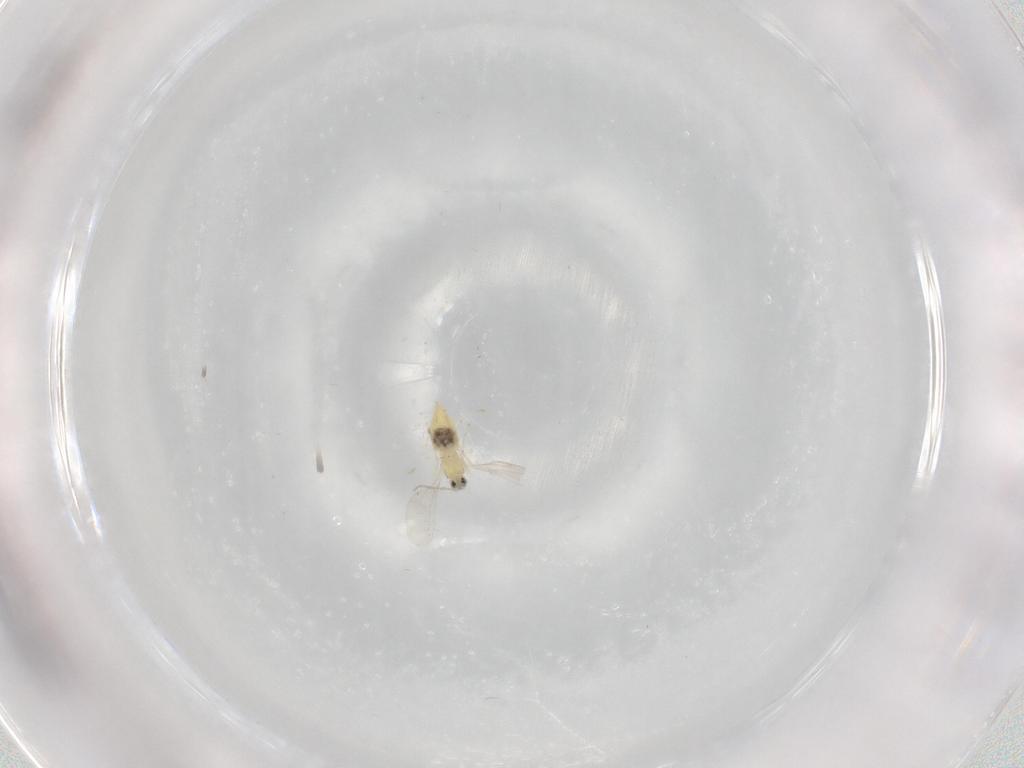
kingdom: Animalia
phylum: Arthropoda
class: Insecta
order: Diptera
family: Cecidomyiidae
